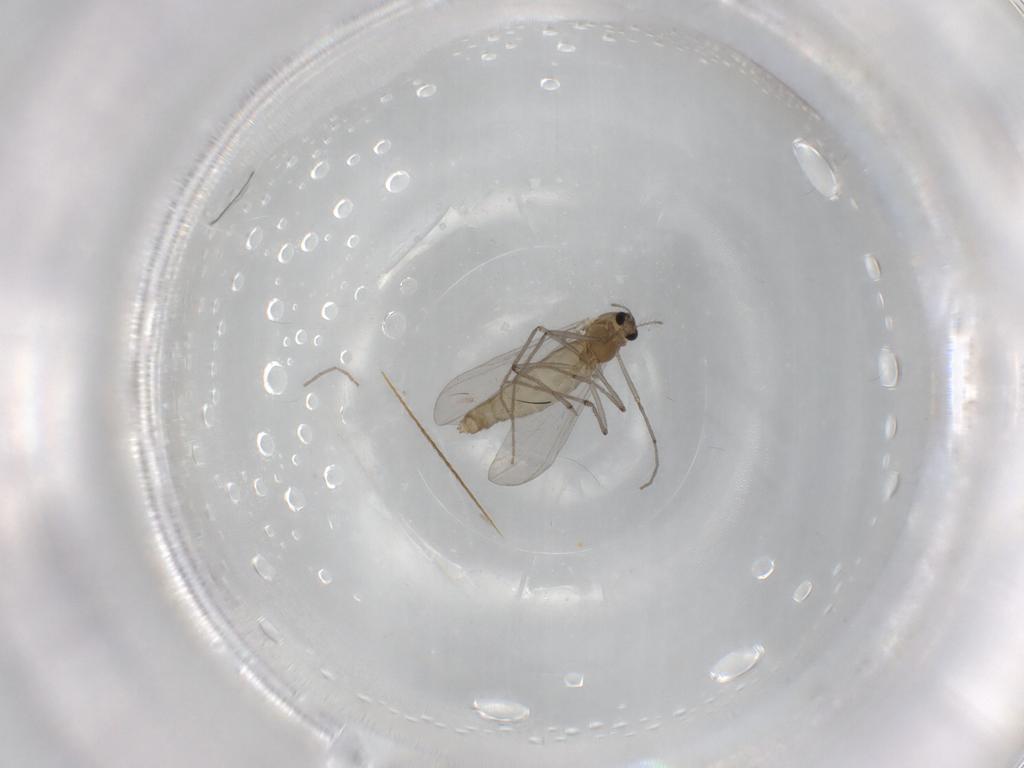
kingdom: Animalia
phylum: Arthropoda
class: Insecta
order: Diptera
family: Chironomidae
